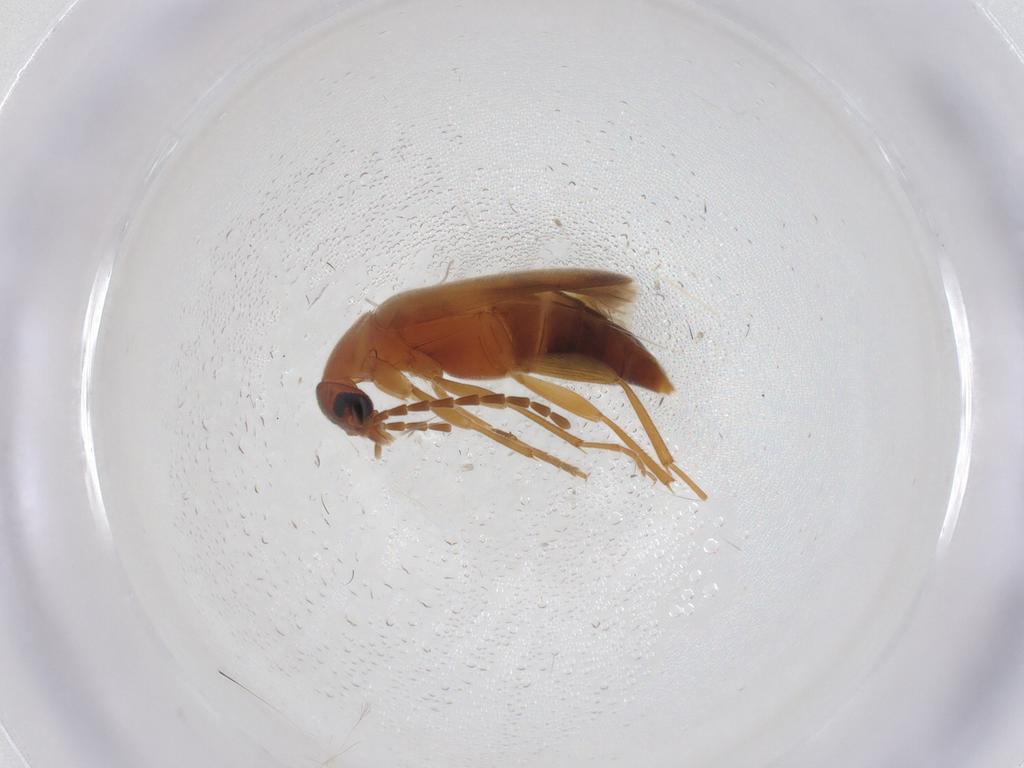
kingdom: Animalia
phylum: Arthropoda
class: Insecta
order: Coleoptera
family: Scraptiidae
